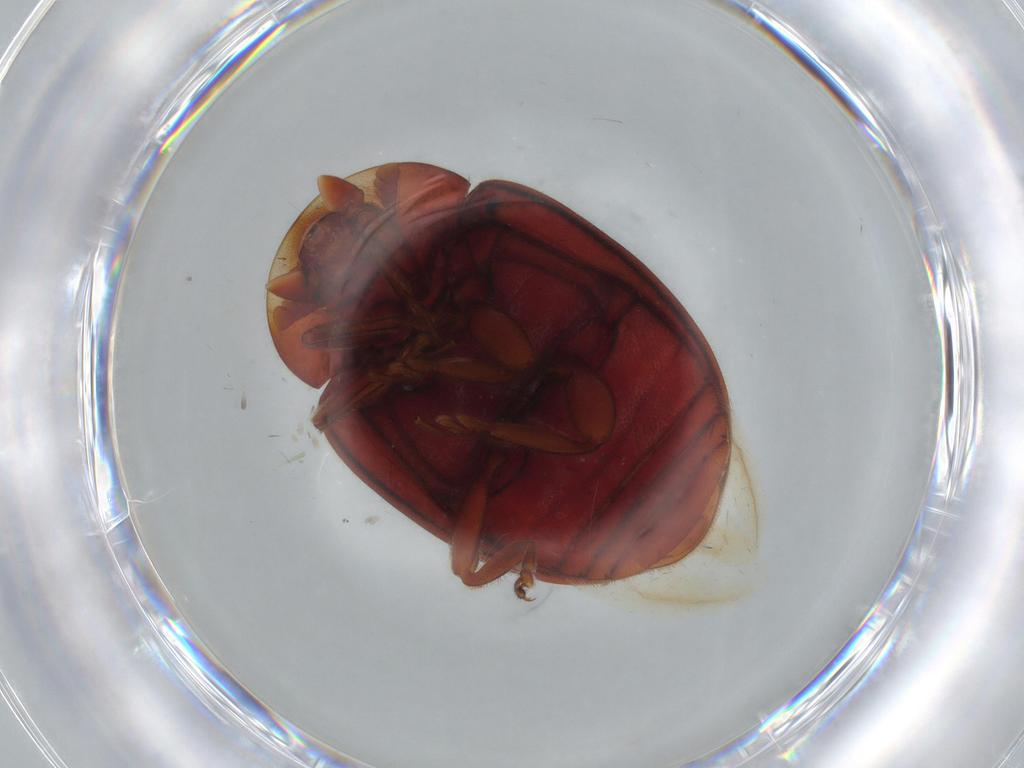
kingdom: Animalia
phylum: Arthropoda
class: Insecta
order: Coleoptera
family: Coccinellidae
